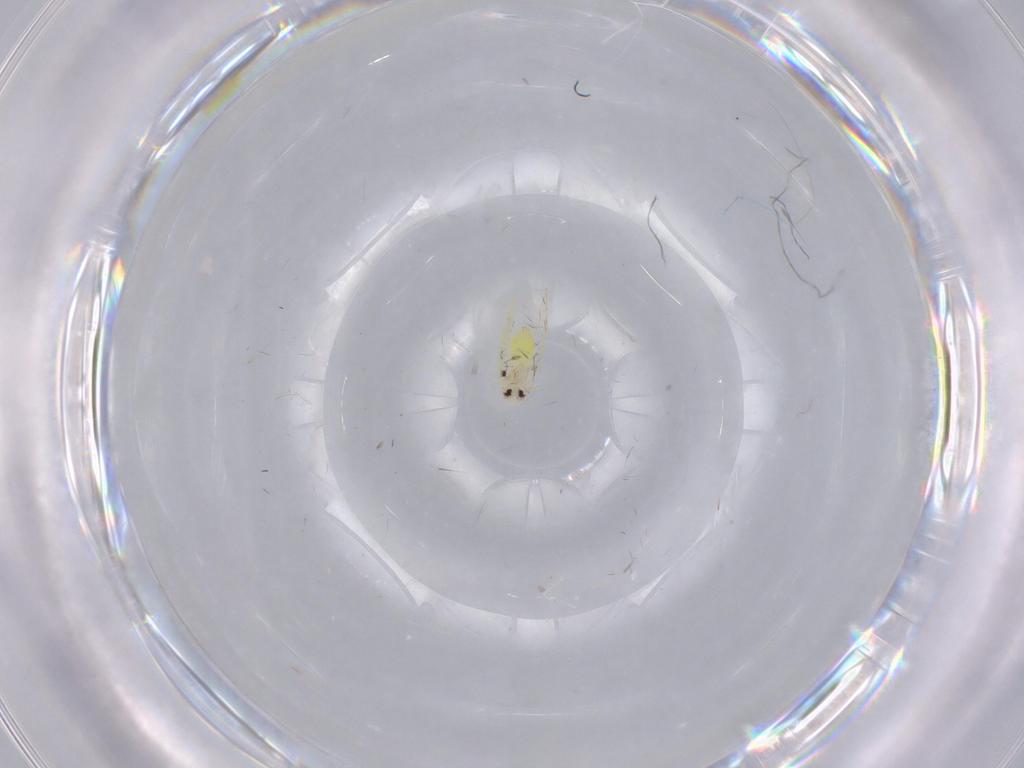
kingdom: Animalia
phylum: Arthropoda
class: Insecta
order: Hemiptera
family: Aleyrodidae
